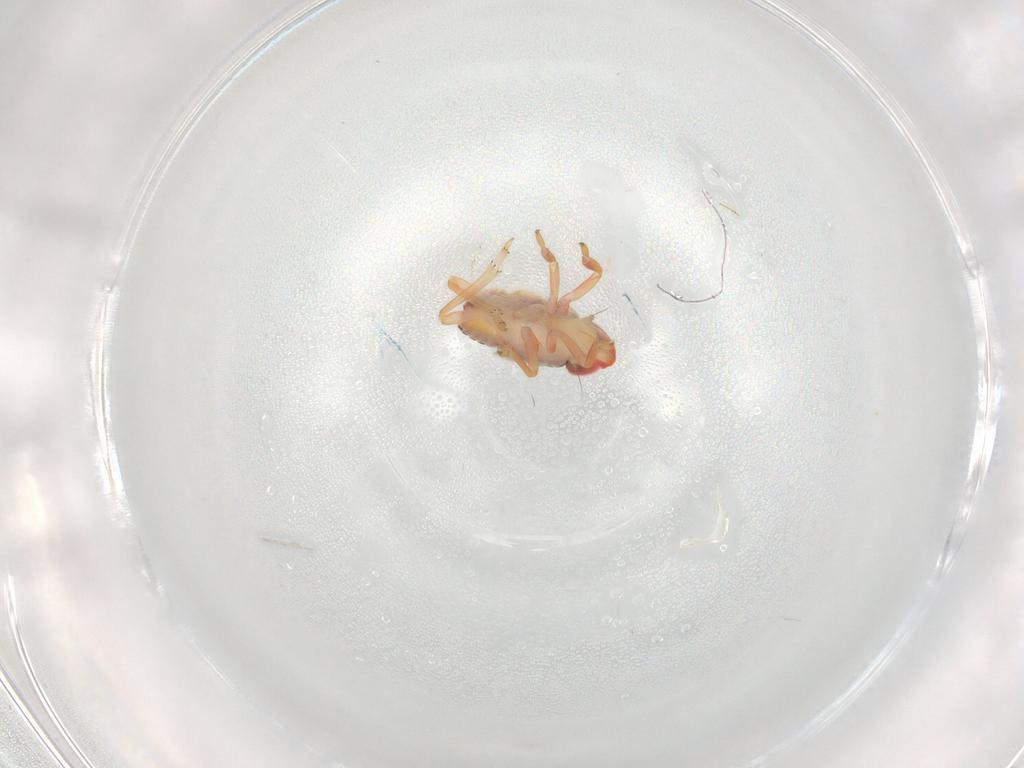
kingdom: Animalia
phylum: Arthropoda
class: Insecta
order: Hemiptera
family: Issidae
